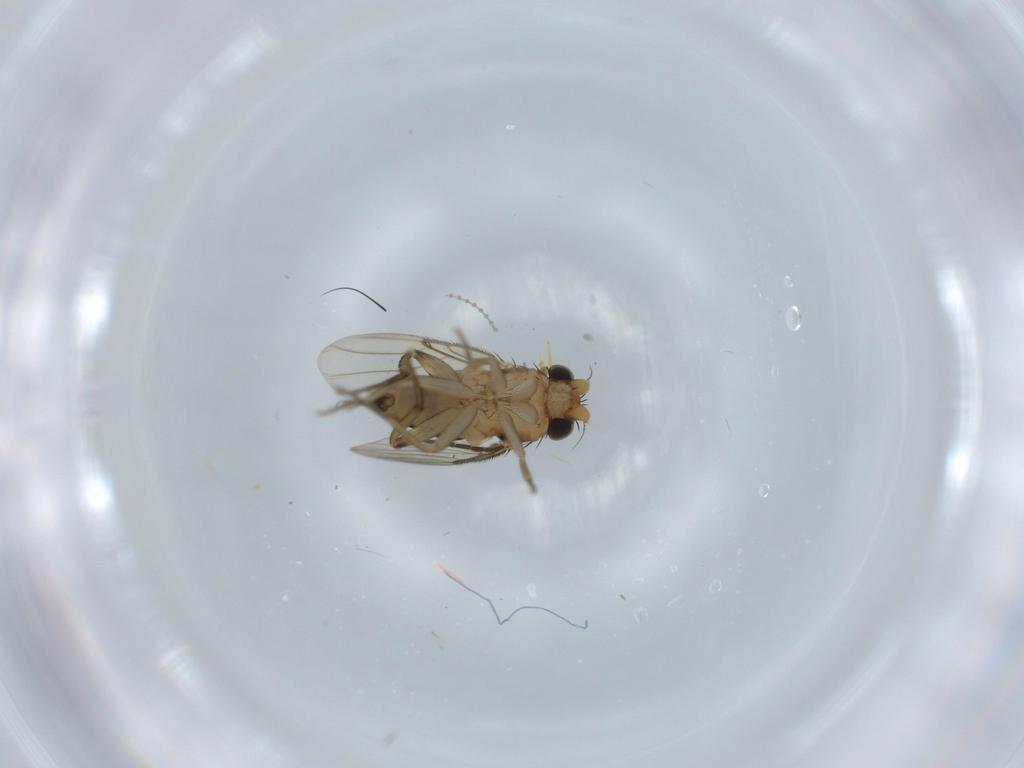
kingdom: Animalia
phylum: Arthropoda
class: Insecta
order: Diptera
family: Cecidomyiidae
